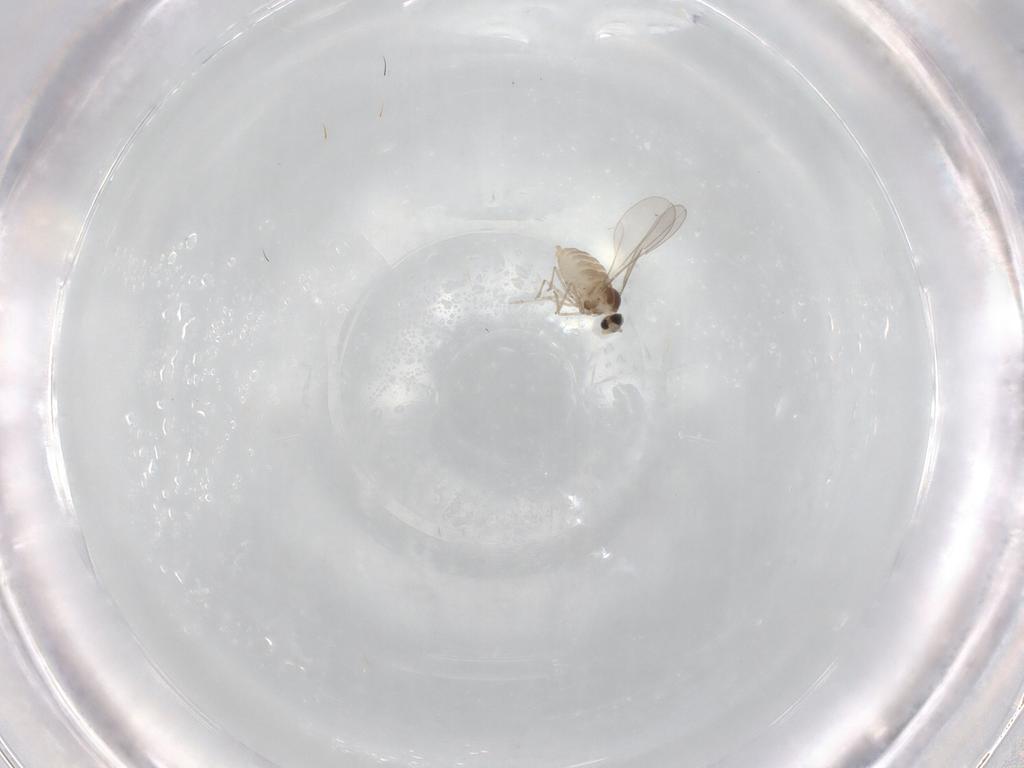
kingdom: Animalia
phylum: Arthropoda
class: Insecta
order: Diptera
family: Cecidomyiidae
